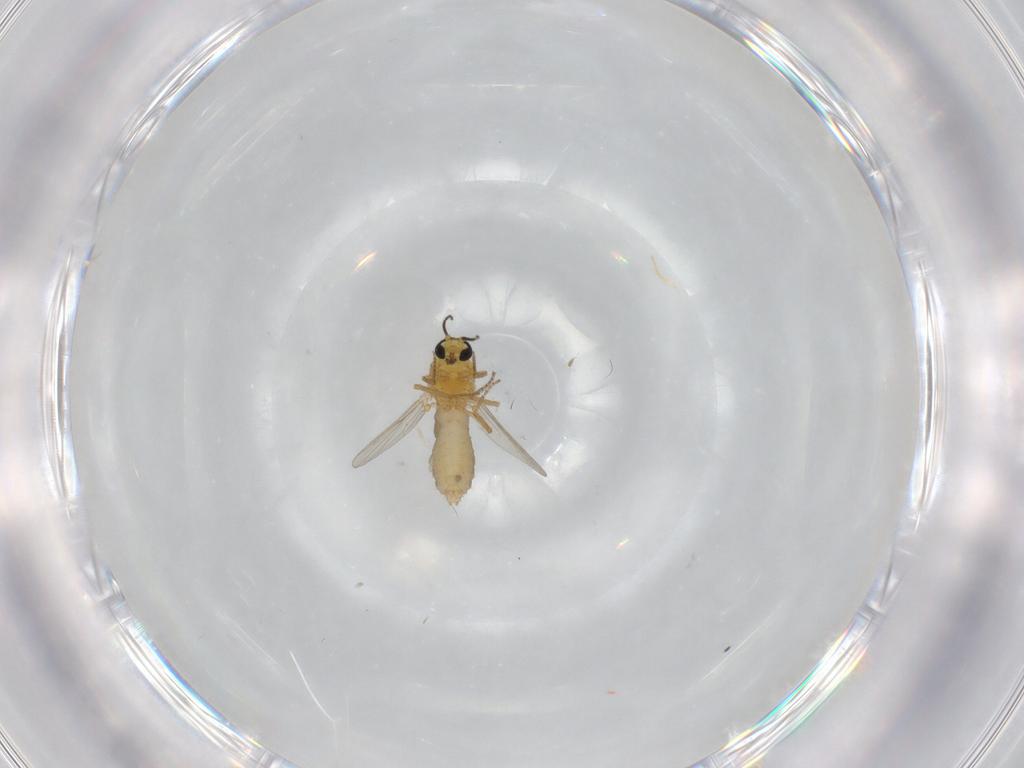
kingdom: Animalia
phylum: Arthropoda
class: Insecta
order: Diptera
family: Ceratopogonidae
